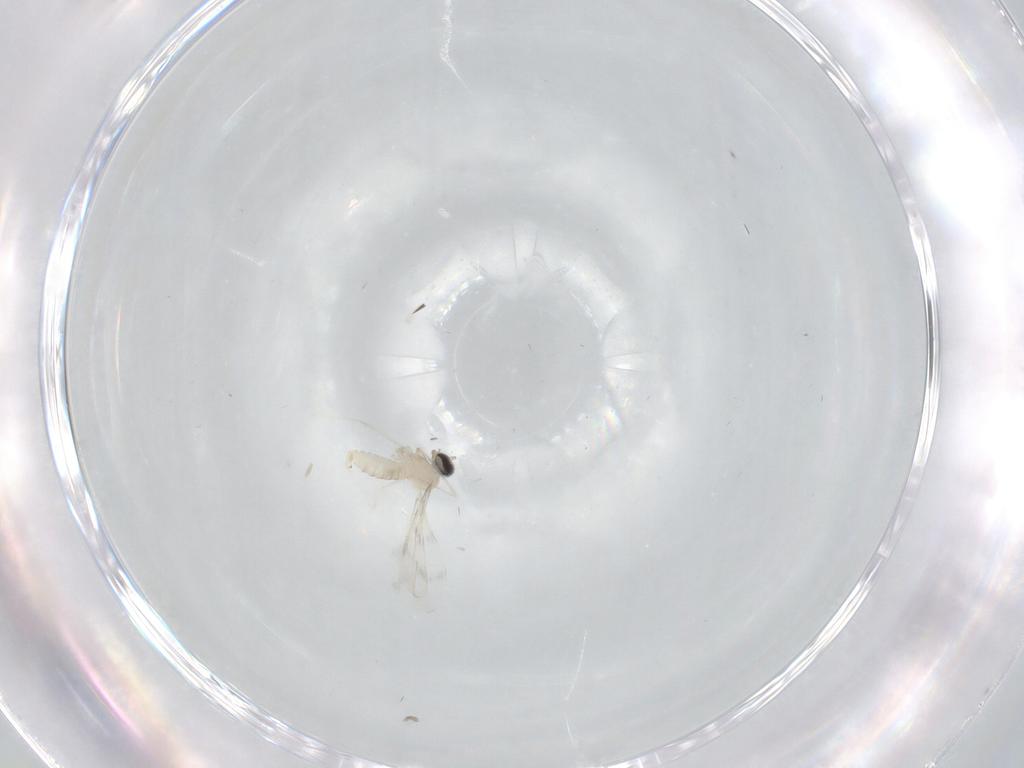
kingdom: Animalia
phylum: Arthropoda
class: Insecta
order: Diptera
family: Cecidomyiidae
